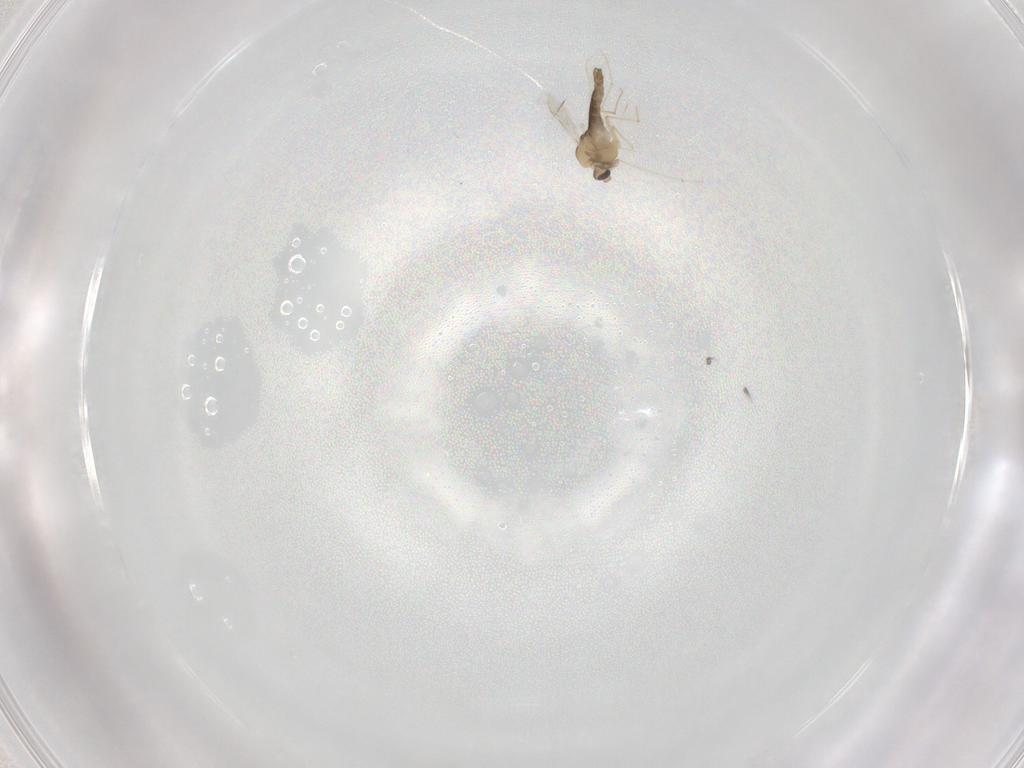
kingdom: Animalia
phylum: Arthropoda
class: Insecta
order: Diptera
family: Chironomidae
